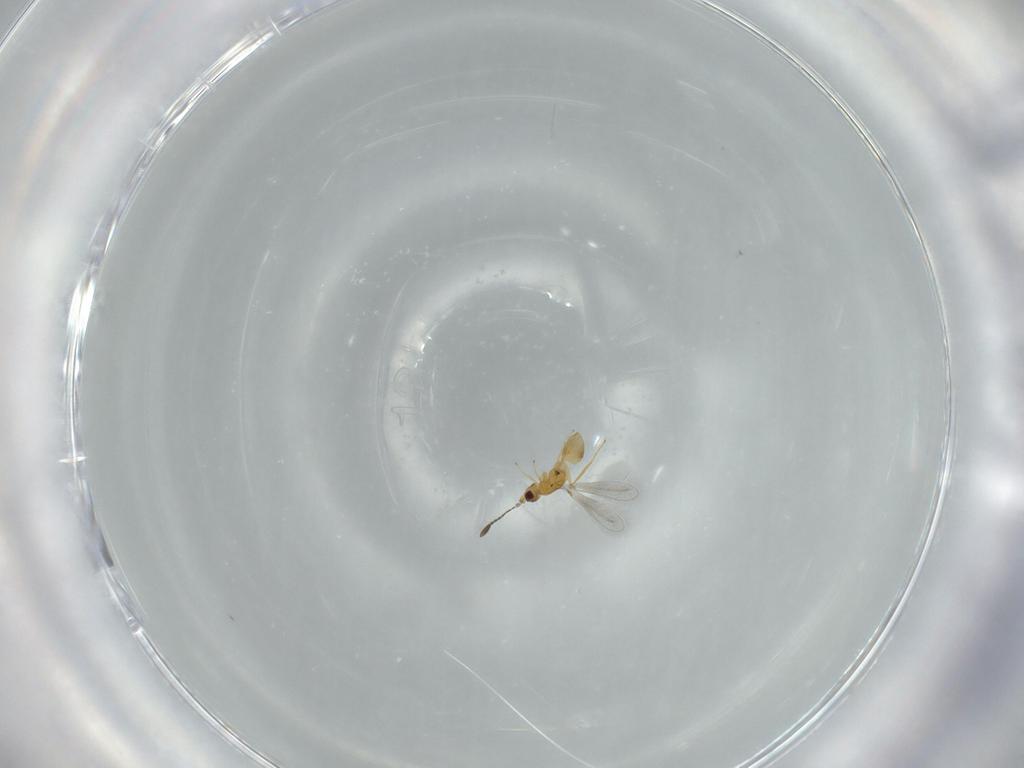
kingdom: Animalia
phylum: Arthropoda
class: Insecta
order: Hymenoptera
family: Mymaridae
